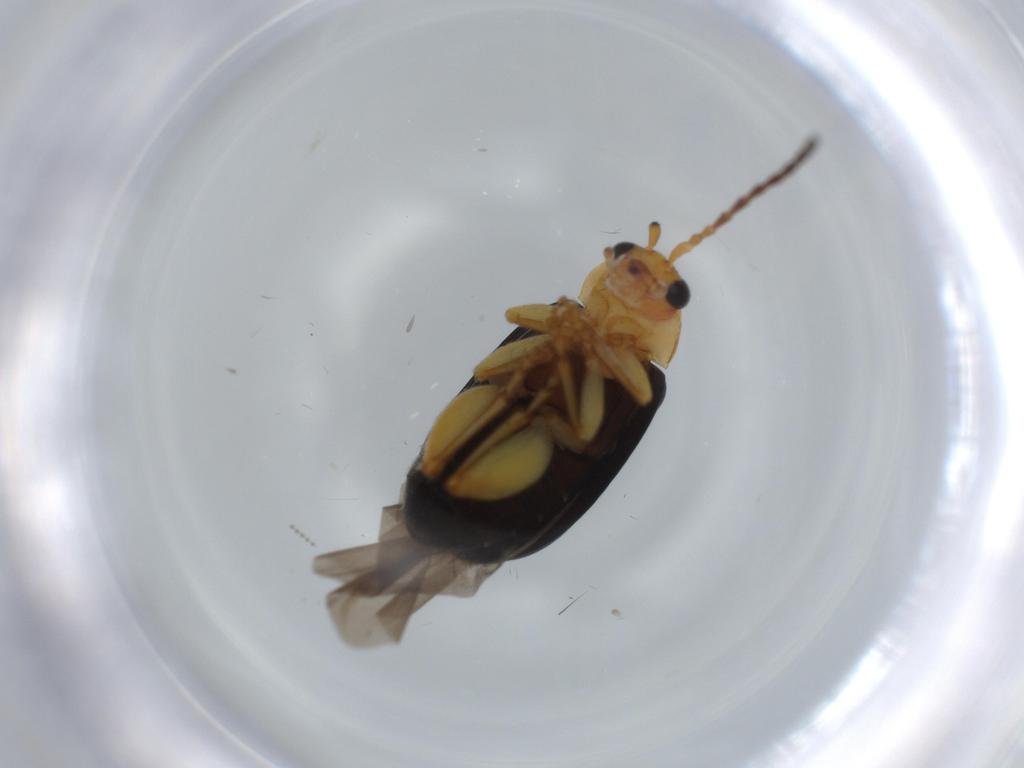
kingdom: Animalia
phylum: Arthropoda
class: Insecta
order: Coleoptera
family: Chrysomelidae
